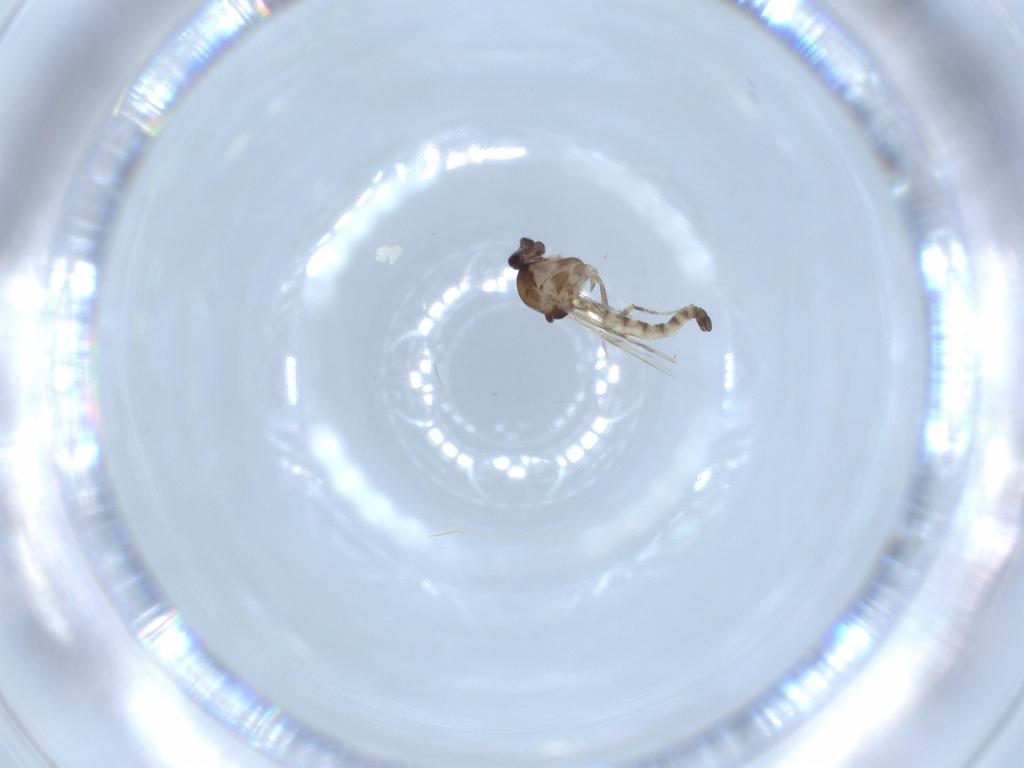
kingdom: Animalia
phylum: Arthropoda
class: Insecta
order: Diptera
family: Ceratopogonidae
